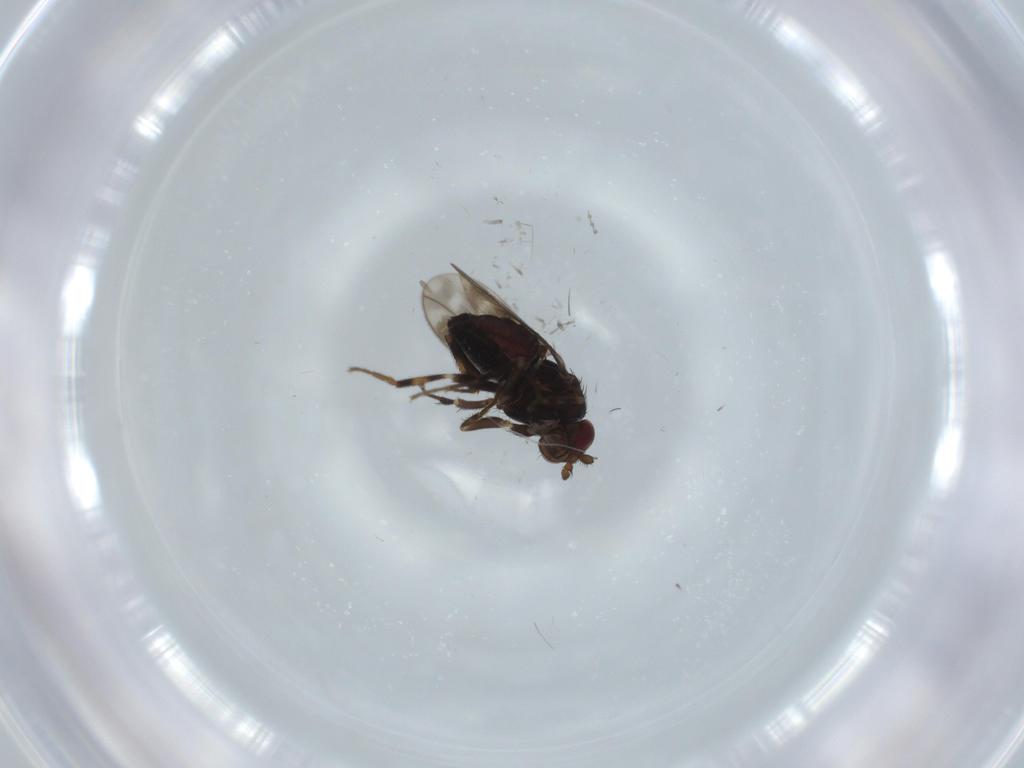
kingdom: Animalia
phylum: Arthropoda
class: Insecta
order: Diptera
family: Sphaeroceridae
